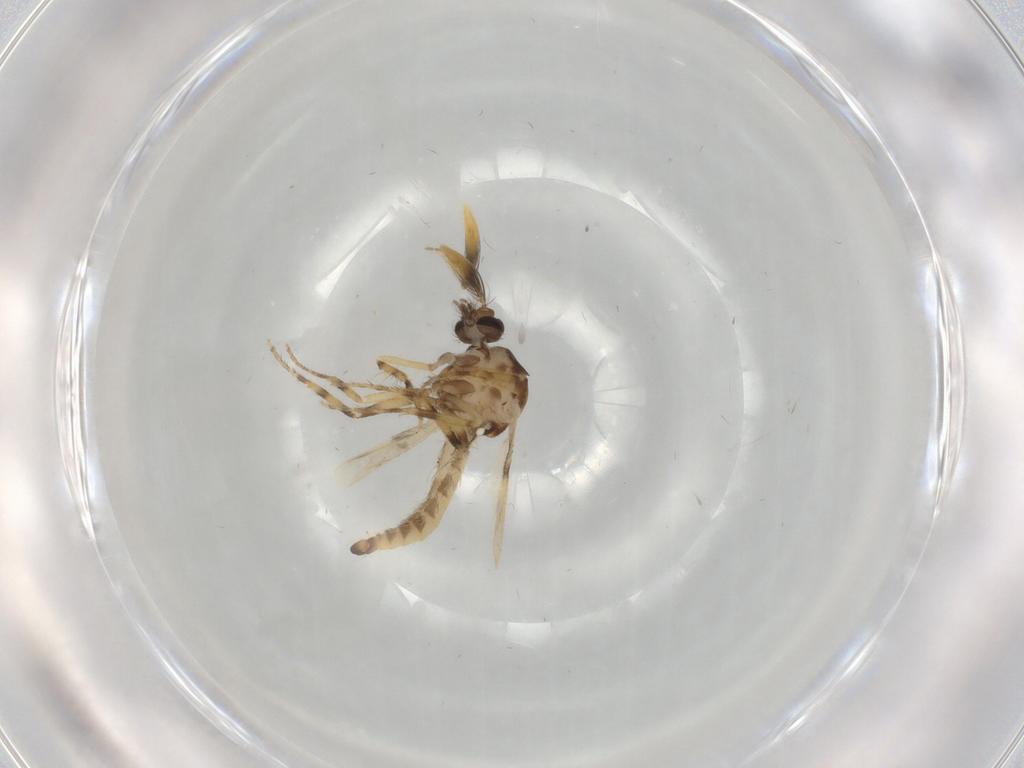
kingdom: Animalia
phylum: Arthropoda
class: Insecta
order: Diptera
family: Ceratopogonidae
